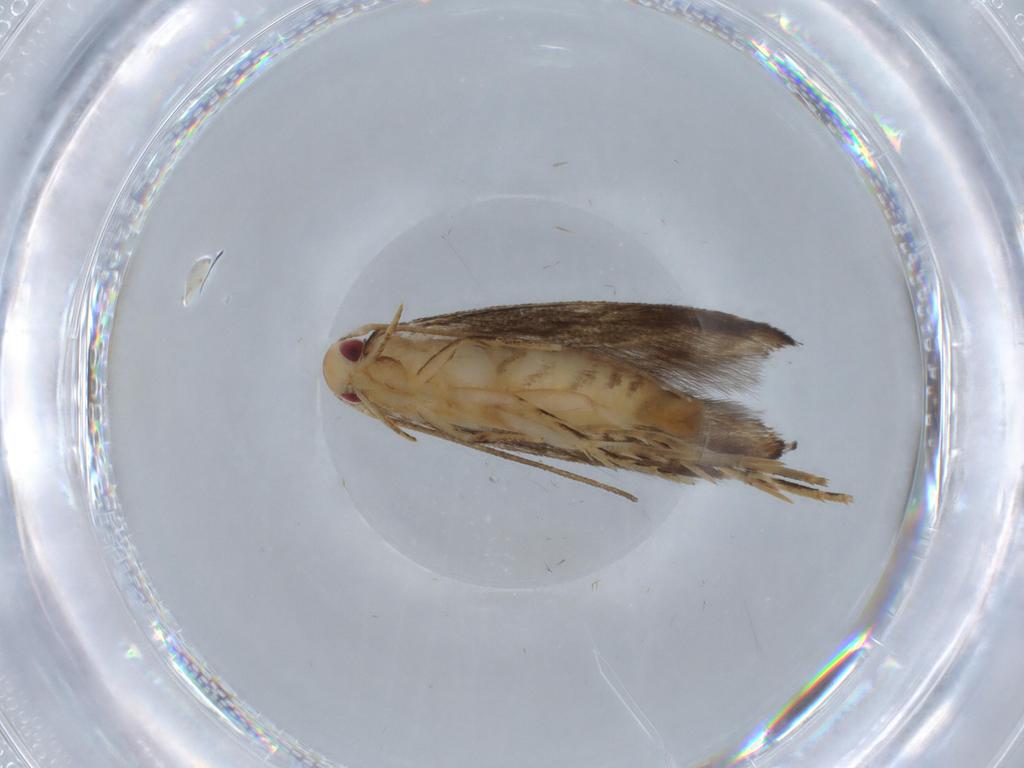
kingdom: Animalia
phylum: Arthropoda
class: Insecta
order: Lepidoptera
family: Momphidae
